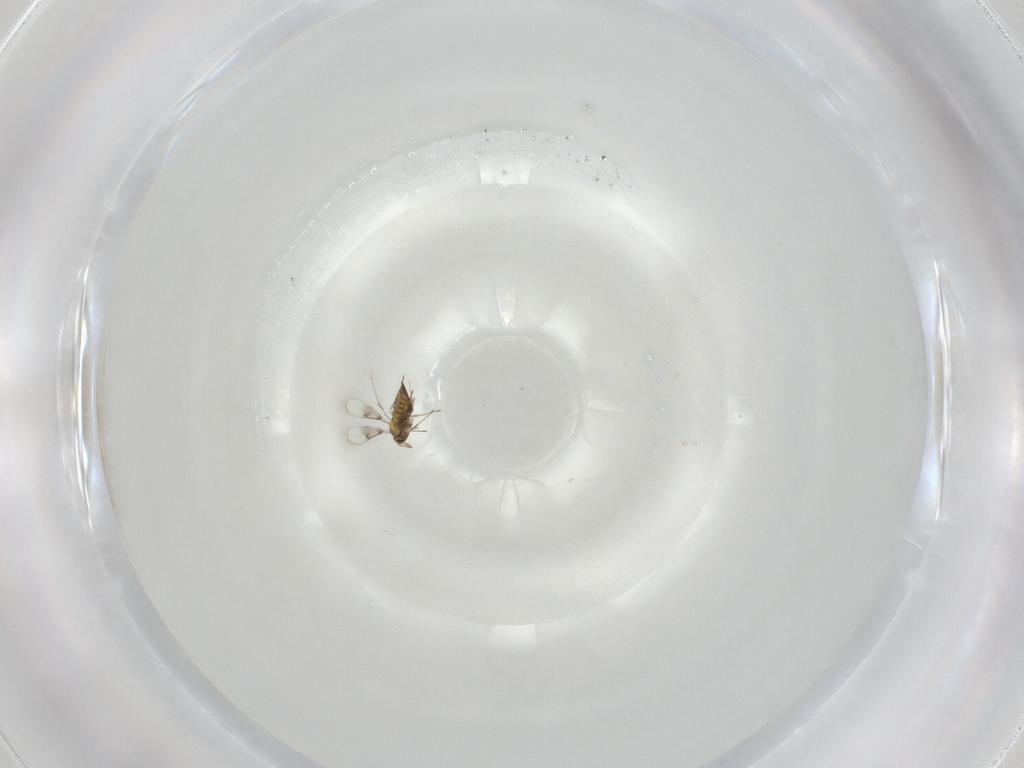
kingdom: Animalia
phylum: Arthropoda
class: Insecta
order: Hymenoptera
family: Trichogrammatidae
